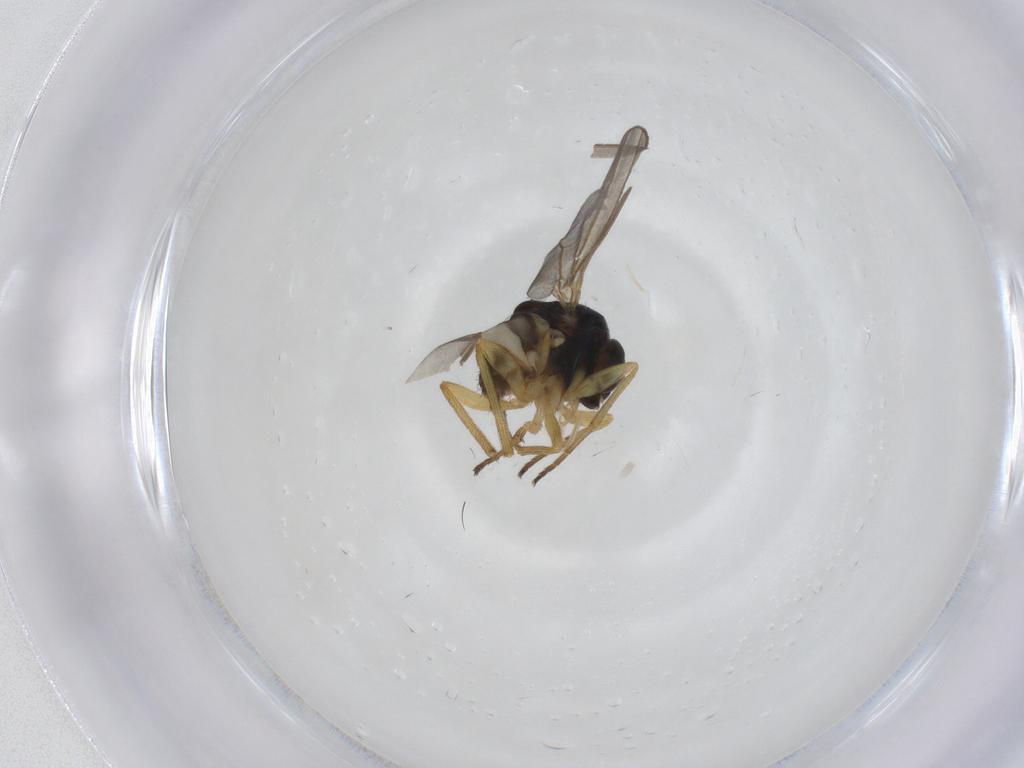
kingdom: Animalia
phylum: Arthropoda
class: Insecta
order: Diptera
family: Dolichopodidae
